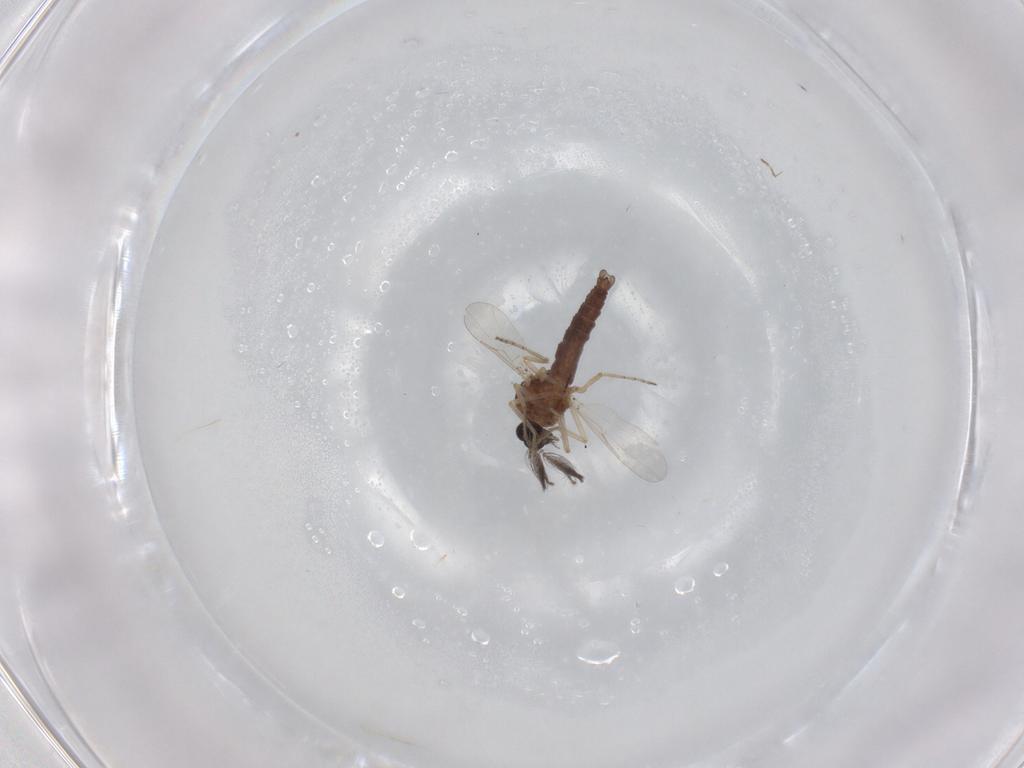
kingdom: Animalia
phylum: Arthropoda
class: Insecta
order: Diptera
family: Ceratopogonidae
